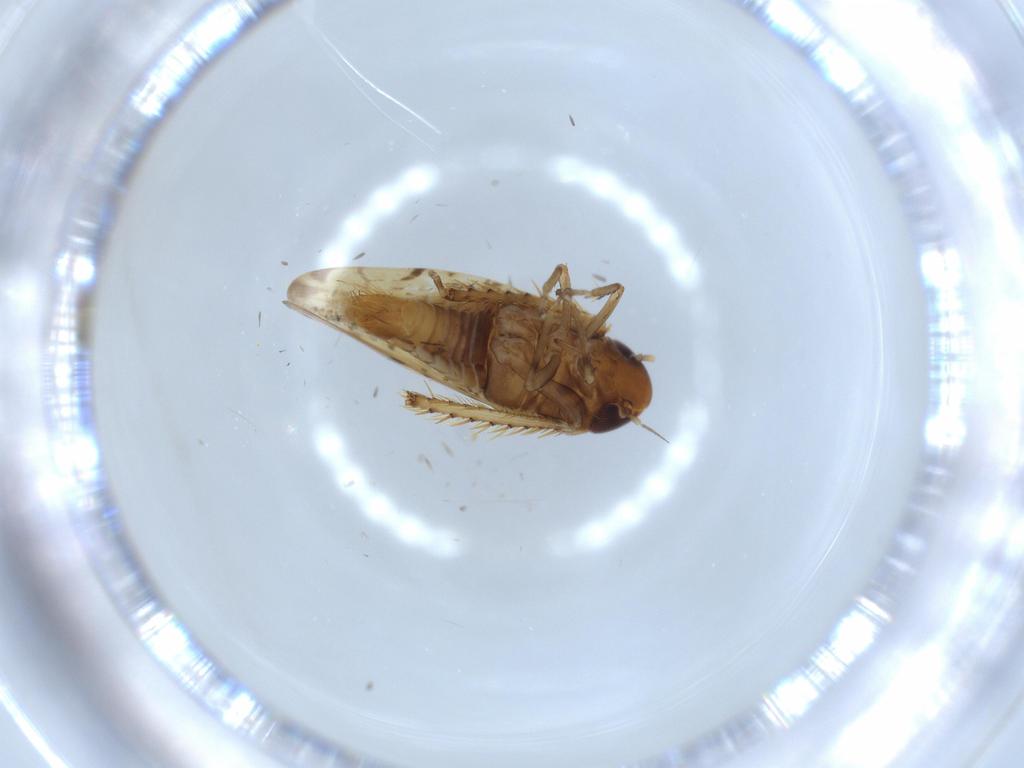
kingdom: Animalia
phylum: Arthropoda
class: Insecta
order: Hemiptera
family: Cicadellidae
